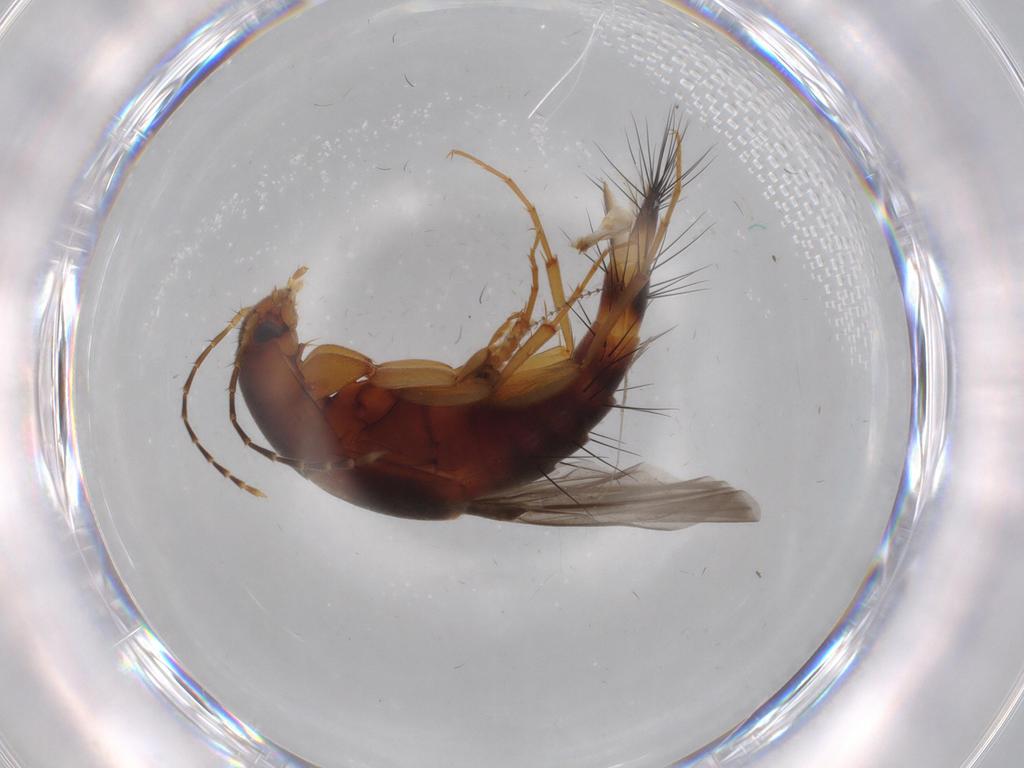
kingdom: Animalia
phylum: Arthropoda
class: Insecta
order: Coleoptera
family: Staphylinidae
